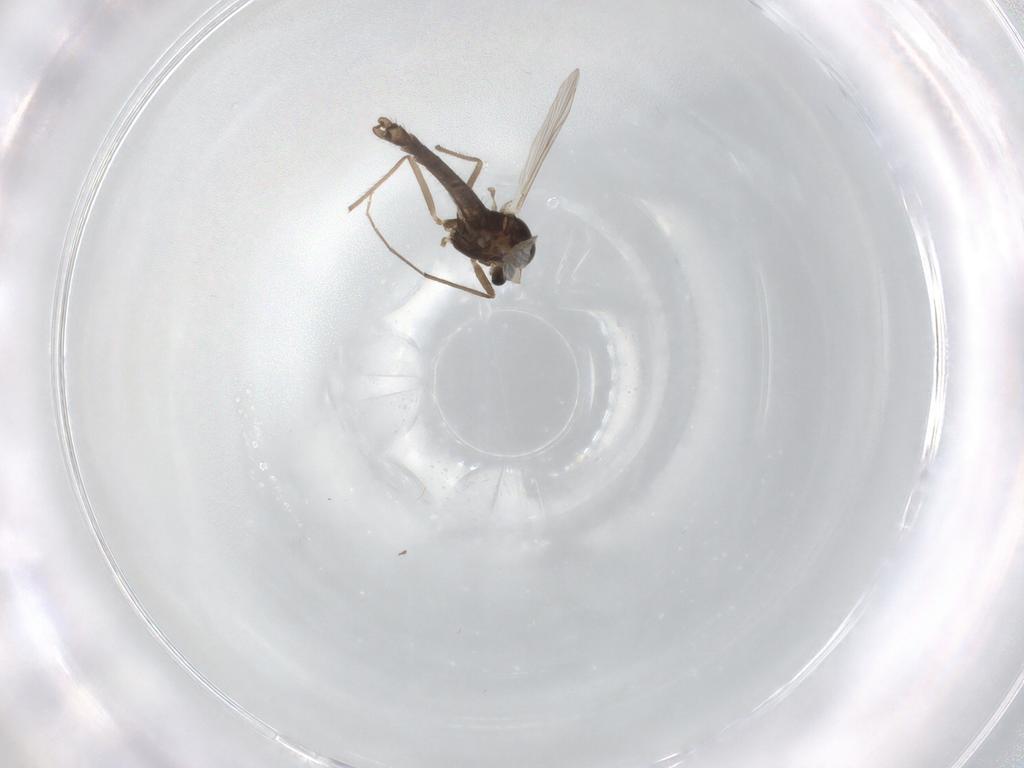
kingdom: Animalia
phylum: Arthropoda
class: Insecta
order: Diptera
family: Chironomidae
